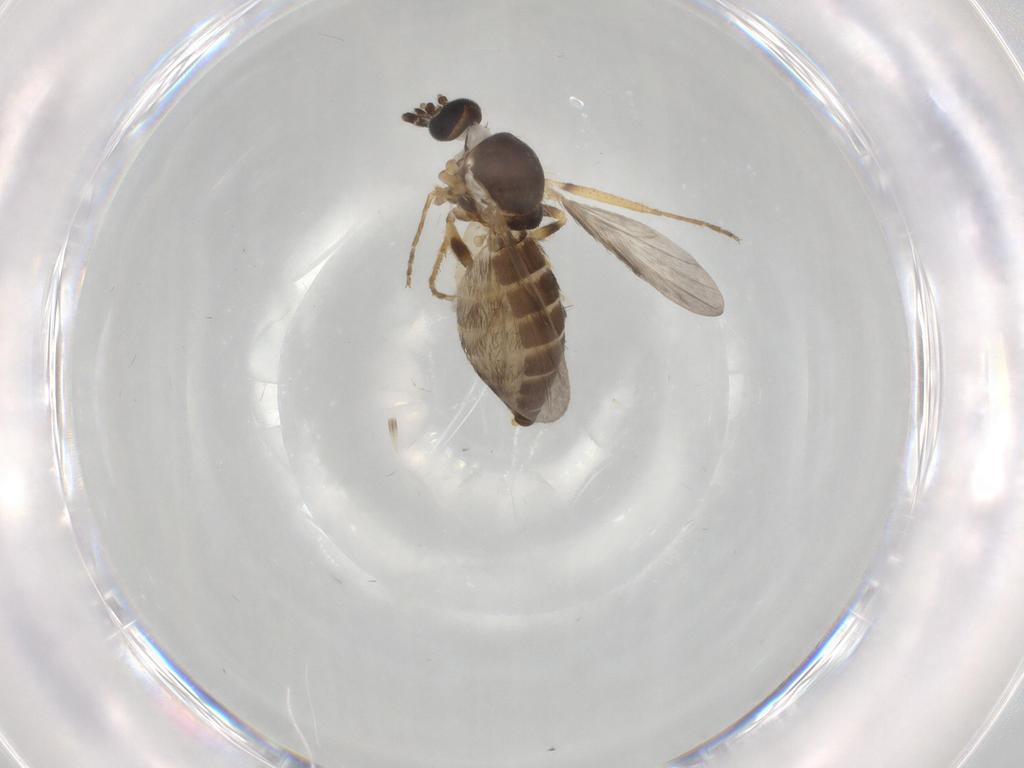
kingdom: Animalia
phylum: Arthropoda
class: Insecta
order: Diptera
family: Ceratopogonidae
